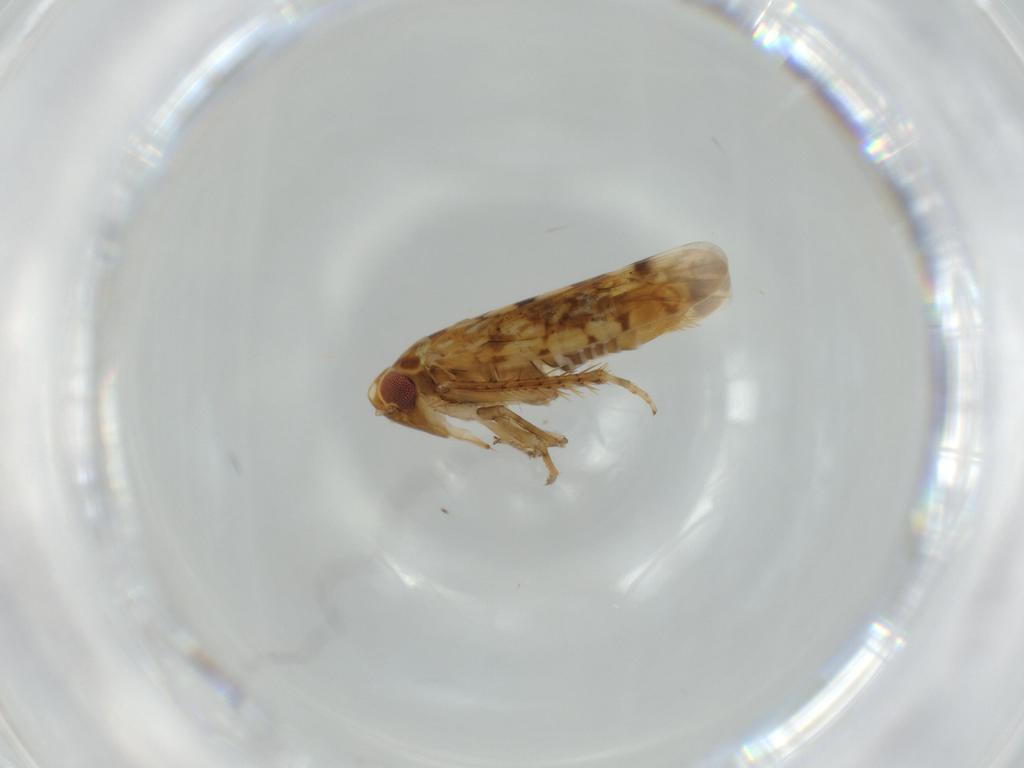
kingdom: Animalia
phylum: Arthropoda
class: Insecta
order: Hemiptera
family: Cicadellidae
